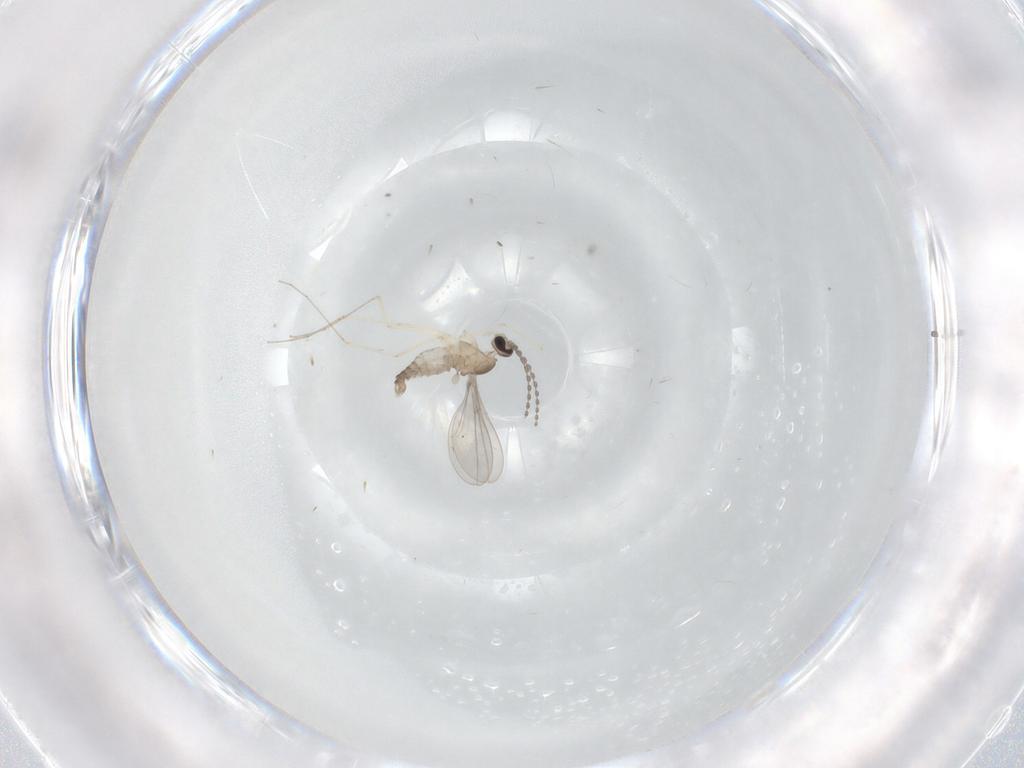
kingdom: Animalia
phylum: Arthropoda
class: Insecta
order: Diptera
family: Cecidomyiidae
